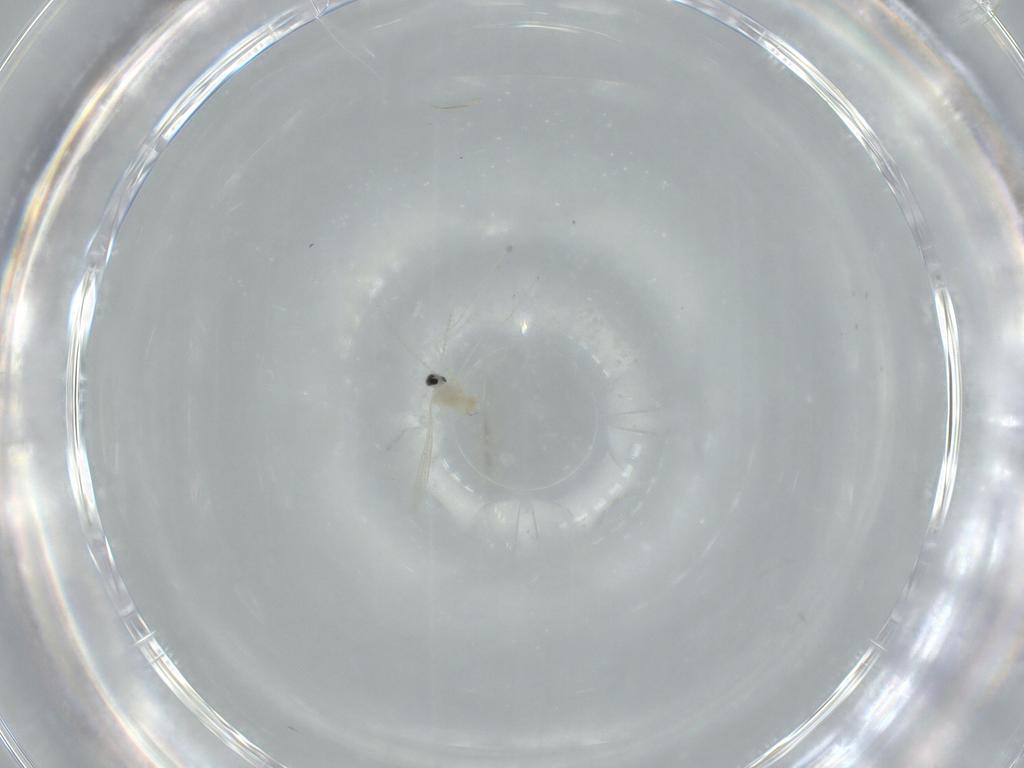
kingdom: Animalia
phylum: Arthropoda
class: Insecta
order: Diptera
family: Cecidomyiidae
